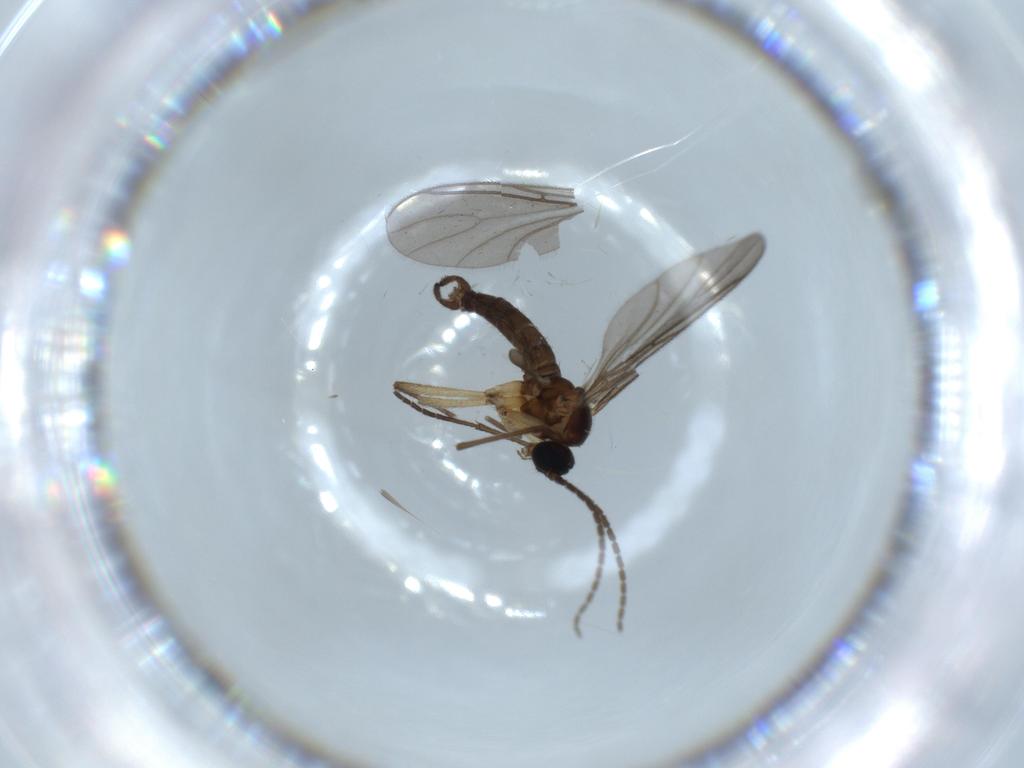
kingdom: Animalia
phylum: Arthropoda
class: Insecta
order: Diptera
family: Sciaridae
